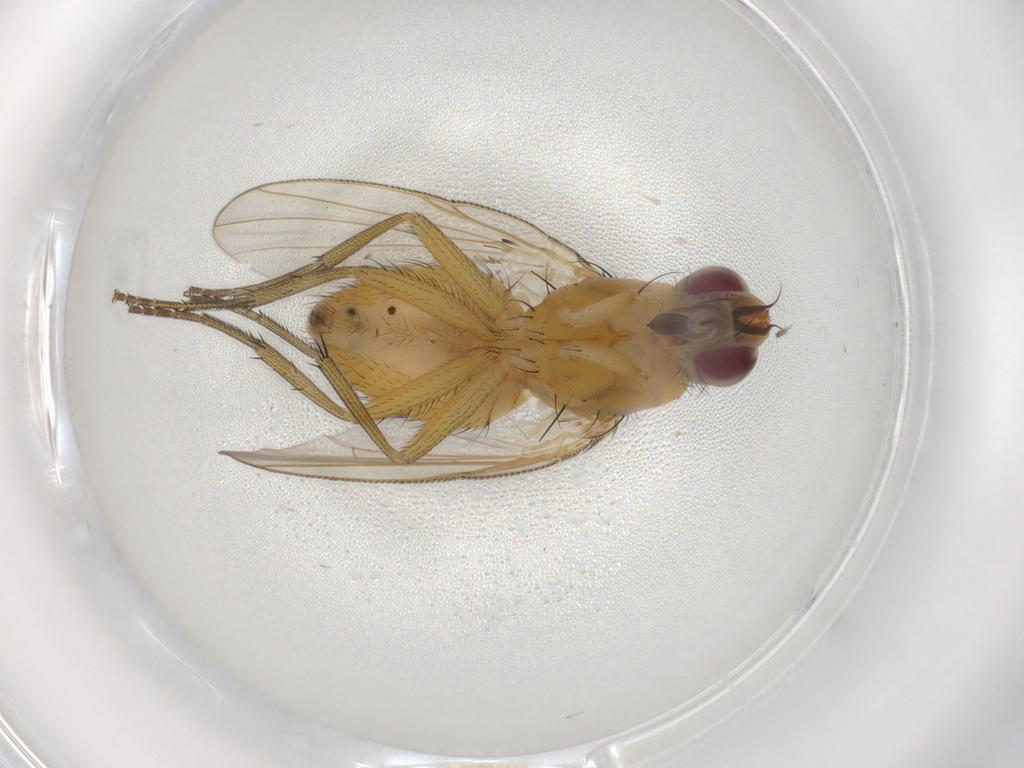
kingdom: Animalia
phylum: Arthropoda
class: Insecta
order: Diptera
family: Muscidae
